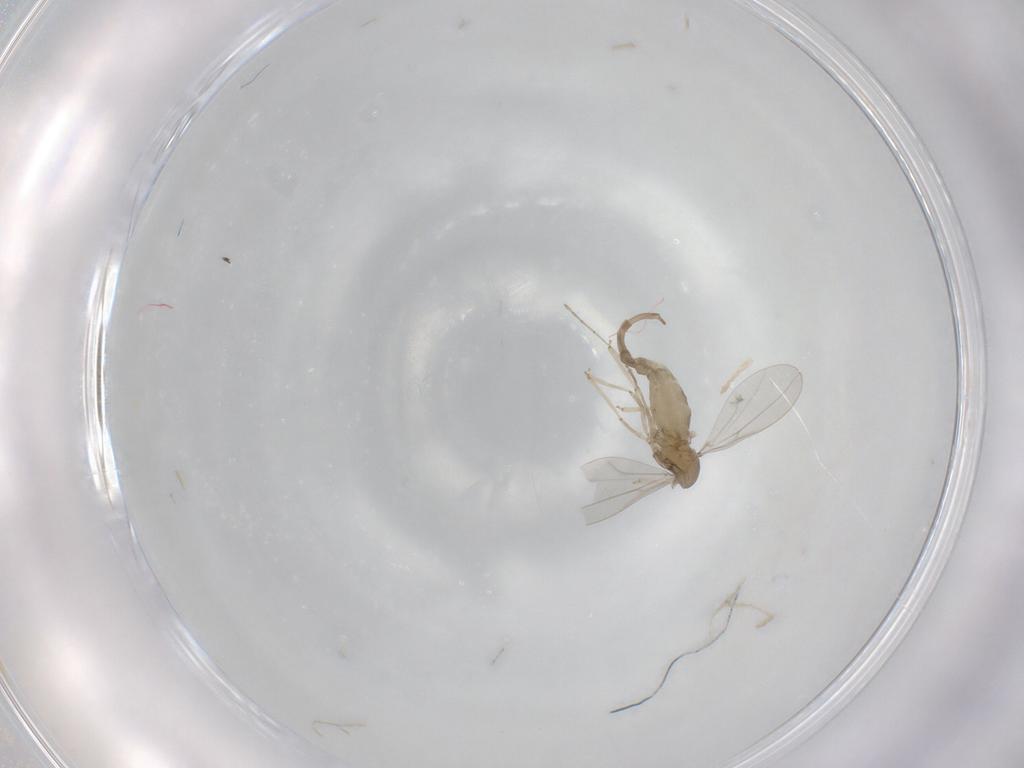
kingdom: Animalia
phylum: Arthropoda
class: Insecta
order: Diptera
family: Cecidomyiidae
